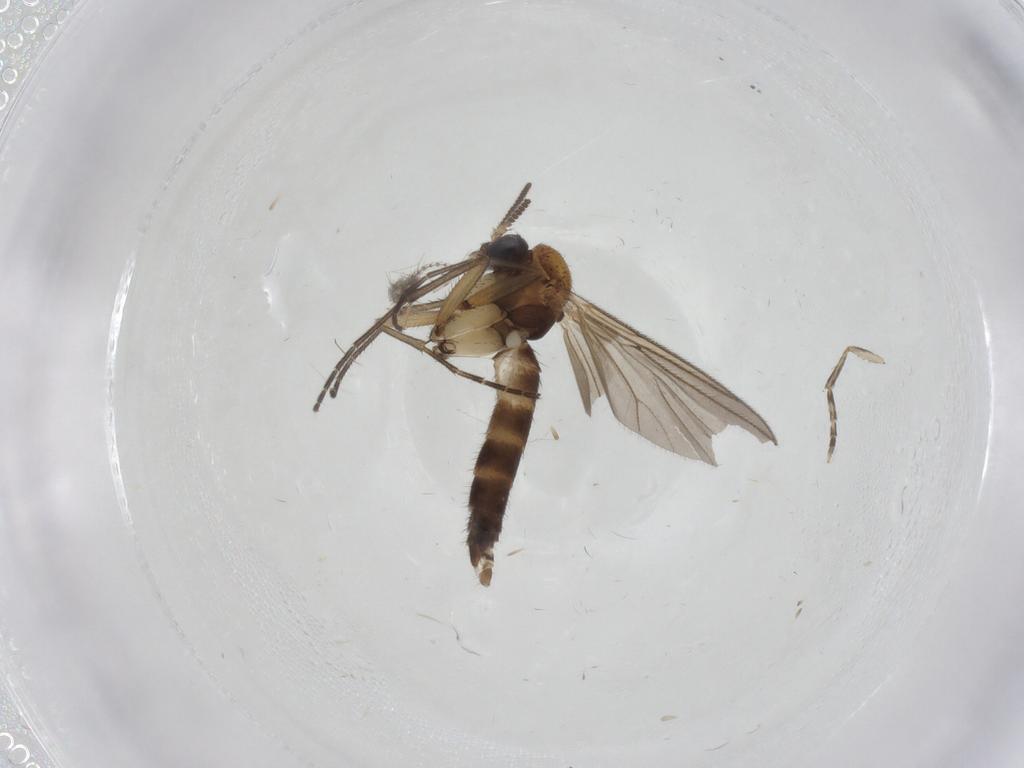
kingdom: Animalia
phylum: Arthropoda
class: Insecta
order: Diptera
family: Mycetophilidae
